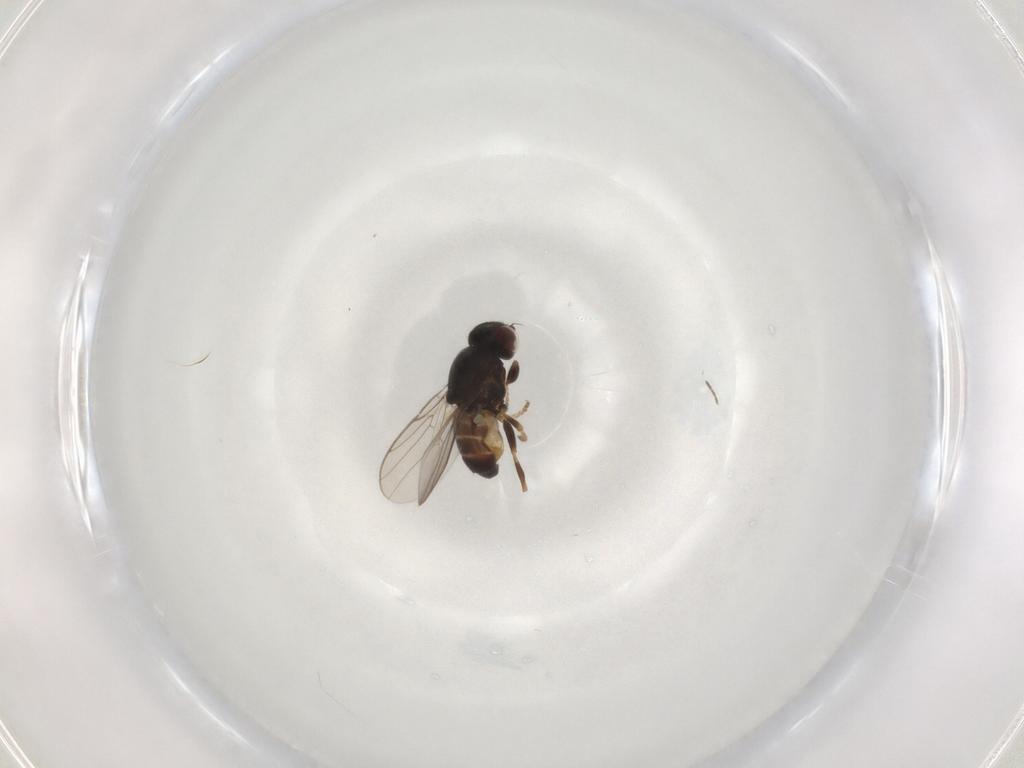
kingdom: Animalia
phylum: Arthropoda
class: Insecta
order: Diptera
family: Chloropidae
